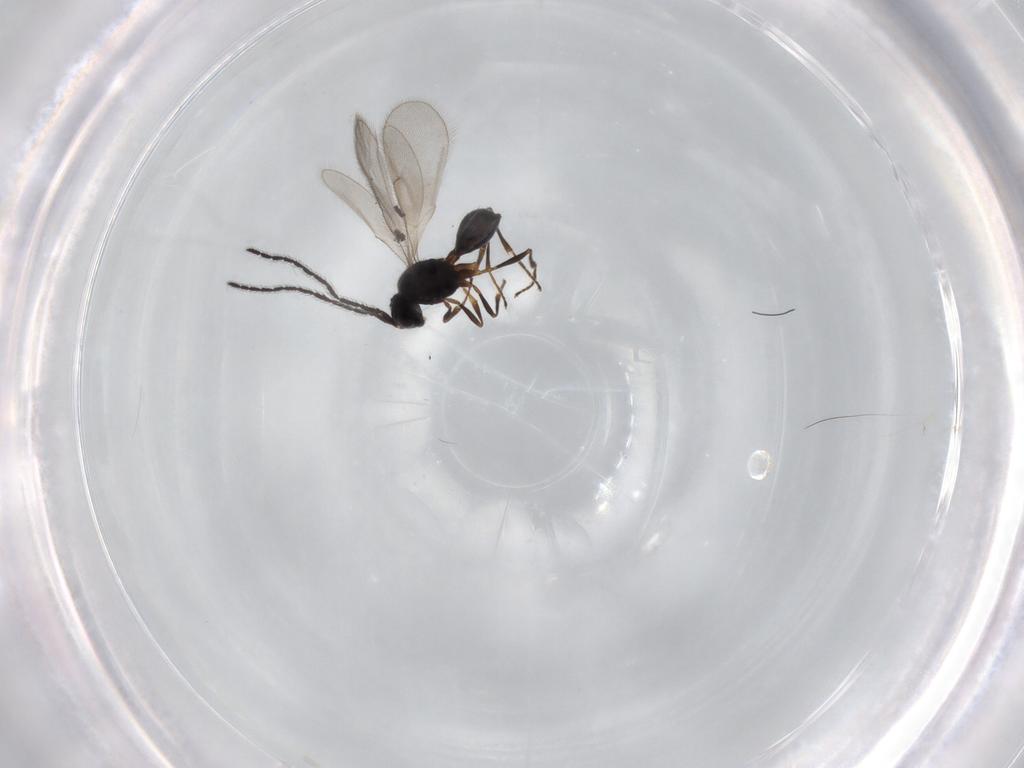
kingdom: Animalia
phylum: Arthropoda
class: Insecta
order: Hymenoptera
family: Scelionidae
